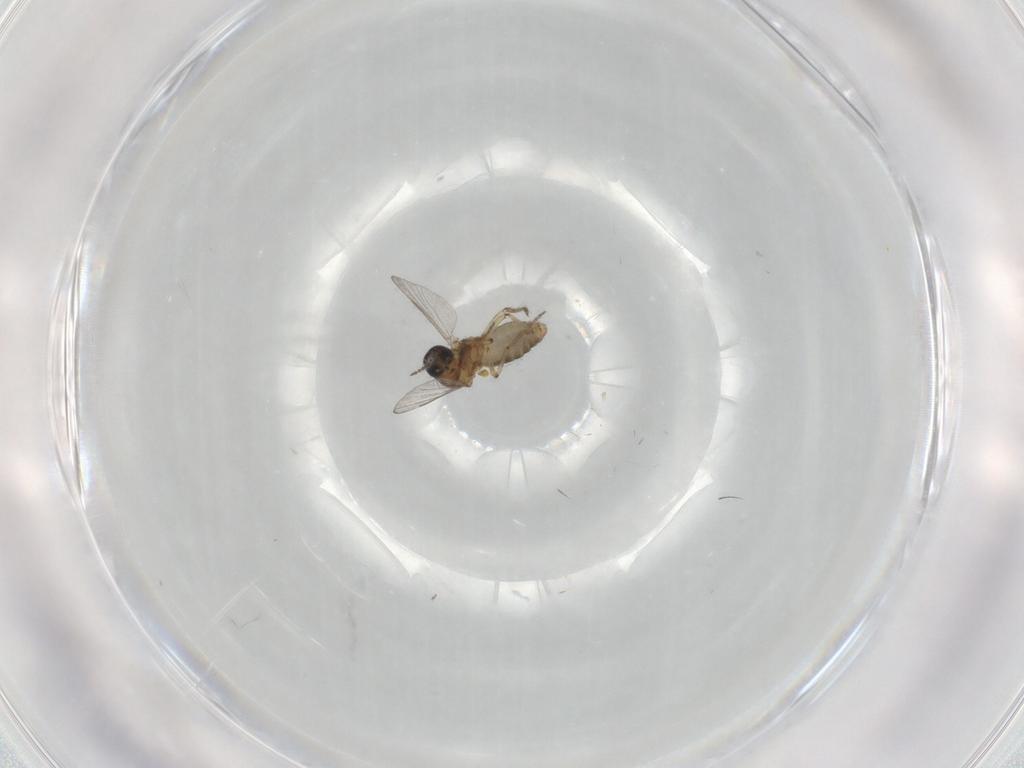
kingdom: Animalia
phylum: Arthropoda
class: Insecta
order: Diptera
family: Ceratopogonidae
